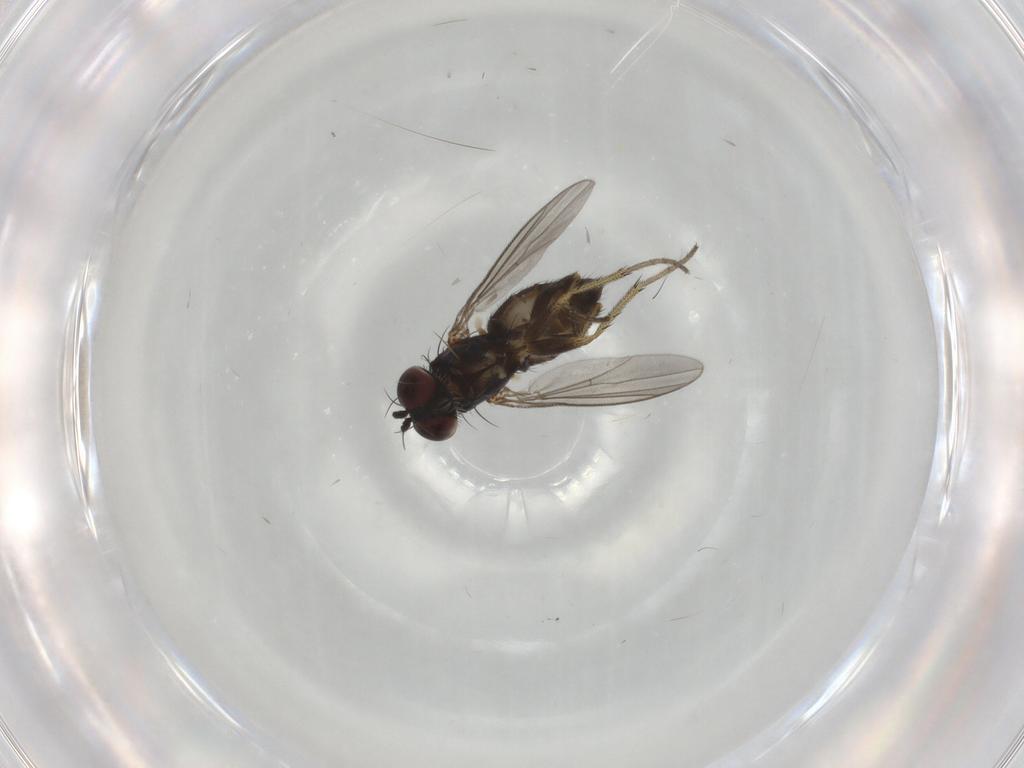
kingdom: Animalia
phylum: Arthropoda
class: Insecta
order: Diptera
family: Dolichopodidae
